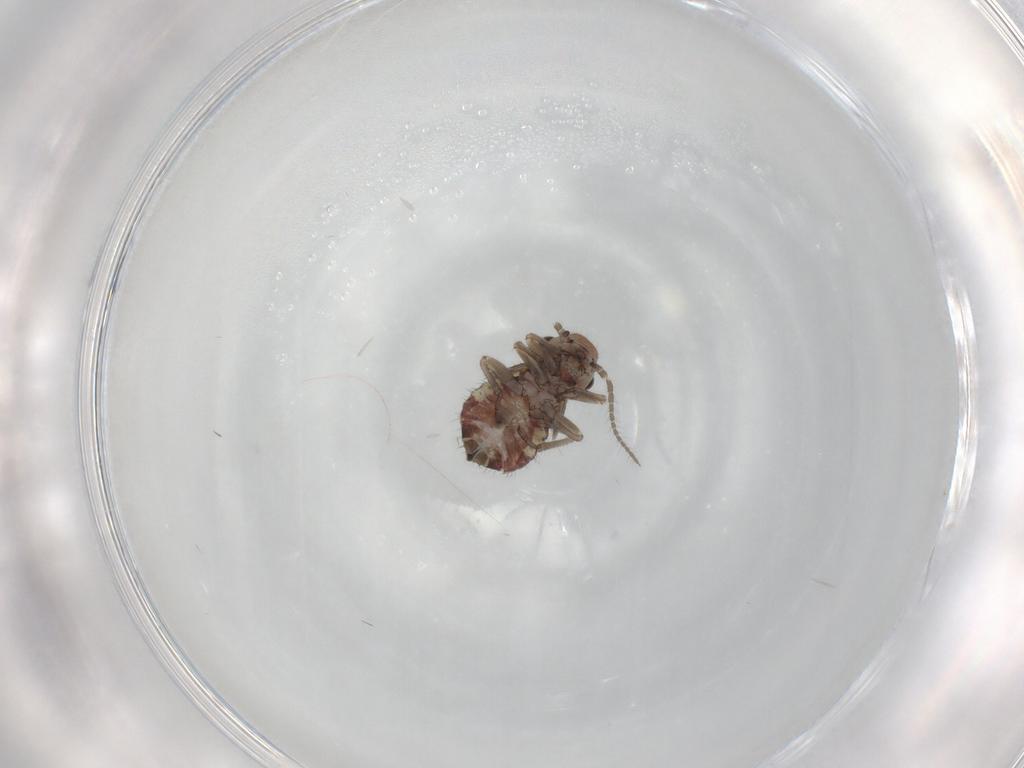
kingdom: Animalia
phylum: Arthropoda
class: Insecta
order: Psocodea
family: Caeciliusidae
